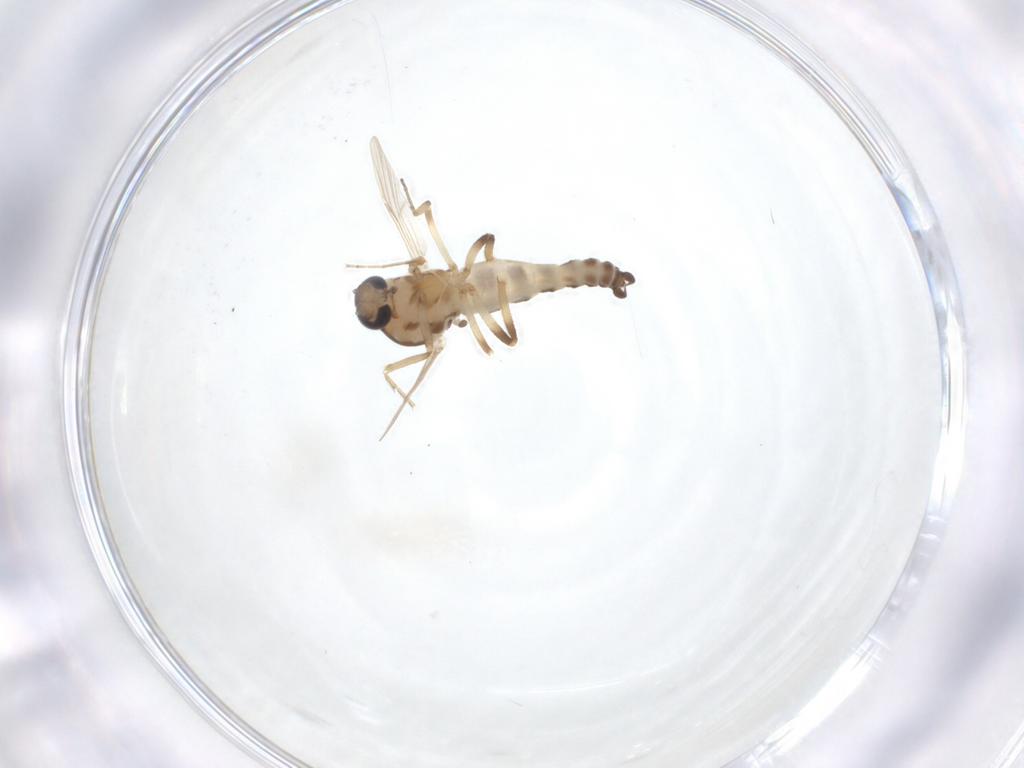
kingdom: Animalia
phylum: Arthropoda
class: Insecta
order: Diptera
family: Ceratopogonidae
